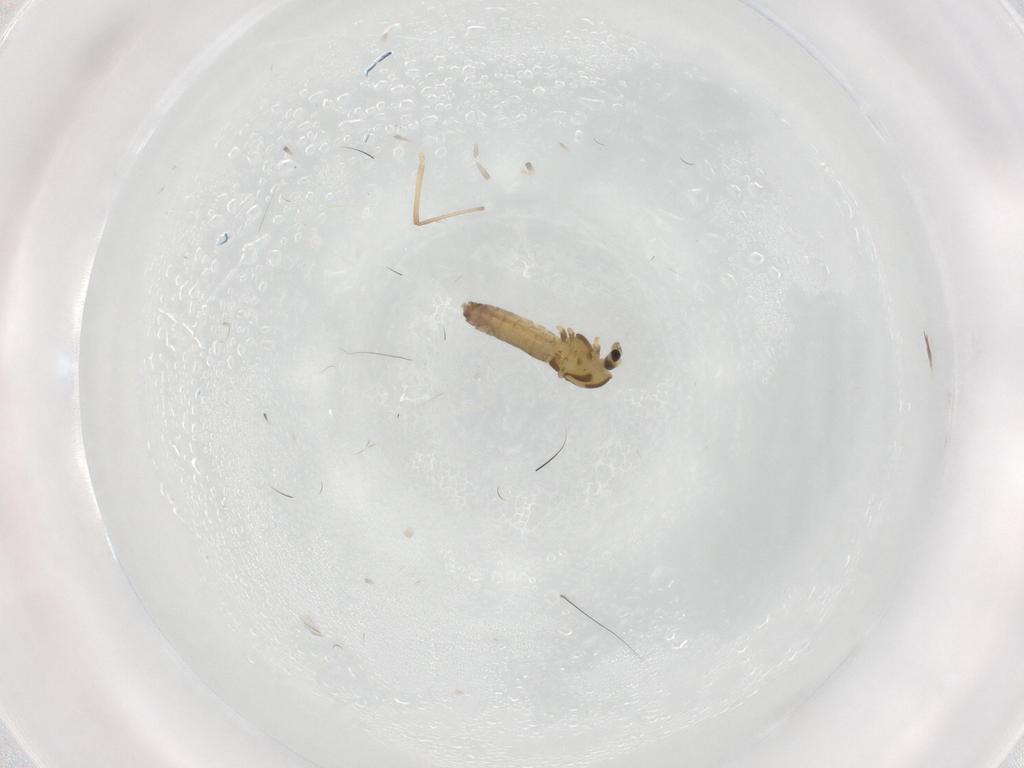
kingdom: Animalia
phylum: Arthropoda
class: Insecta
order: Diptera
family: Chironomidae
